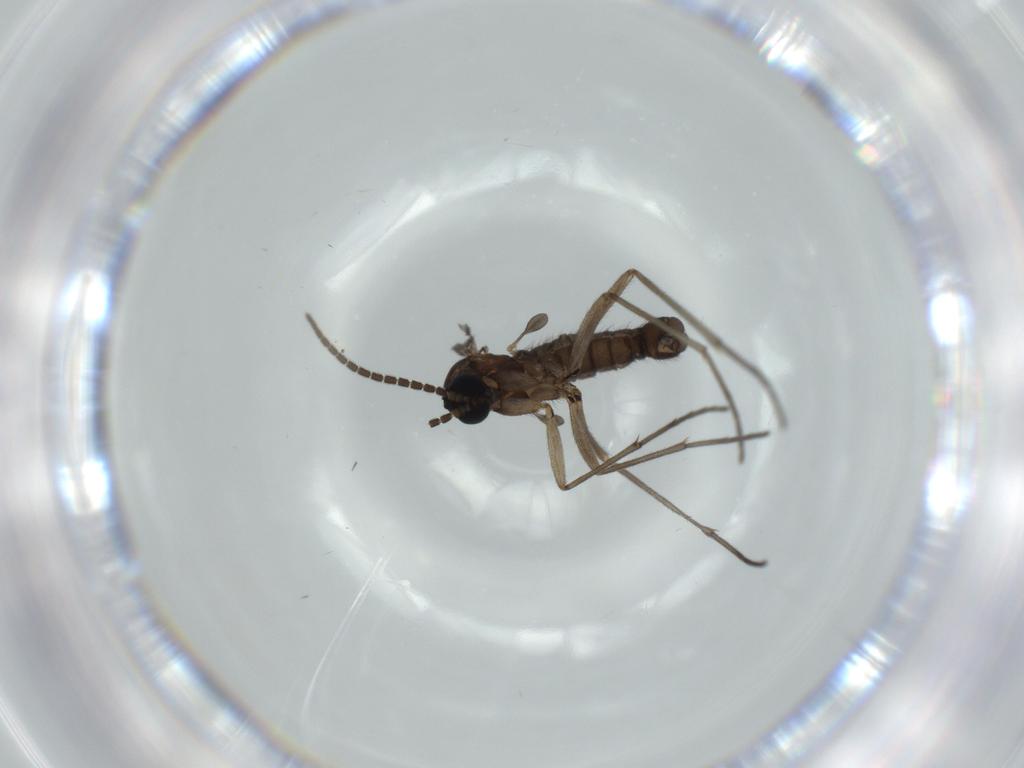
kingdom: Animalia
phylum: Arthropoda
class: Insecta
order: Diptera
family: Sciaridae
